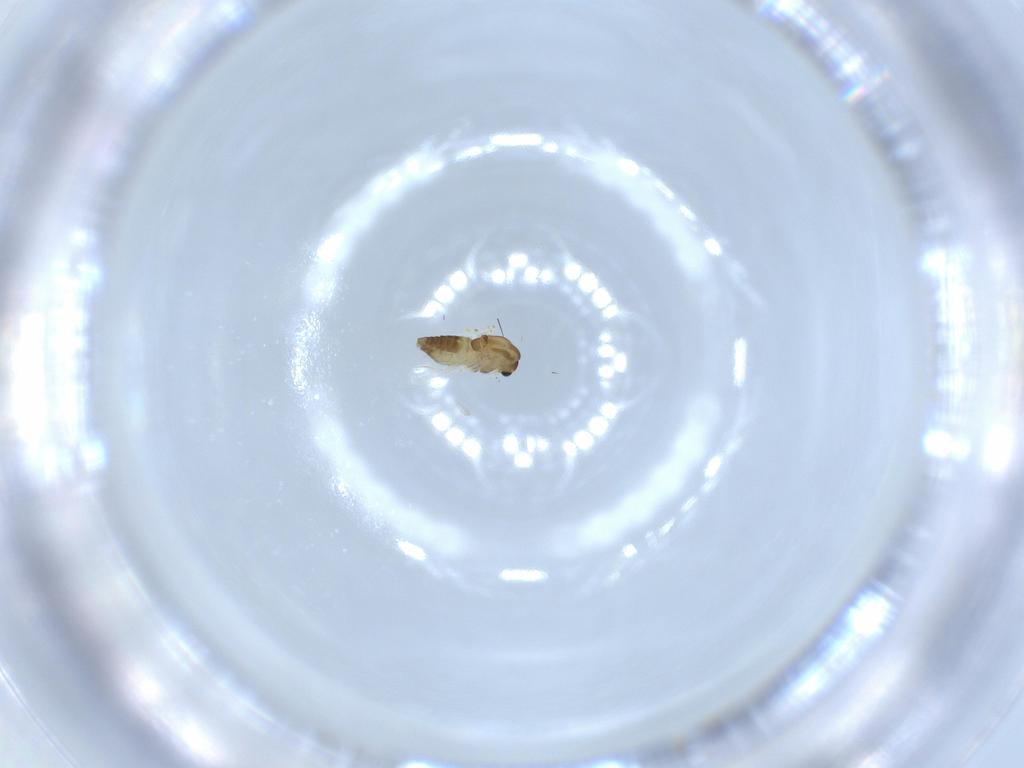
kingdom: Animalia
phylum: Arthropoda
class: Insecta
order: Diptera
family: Chironomidae
